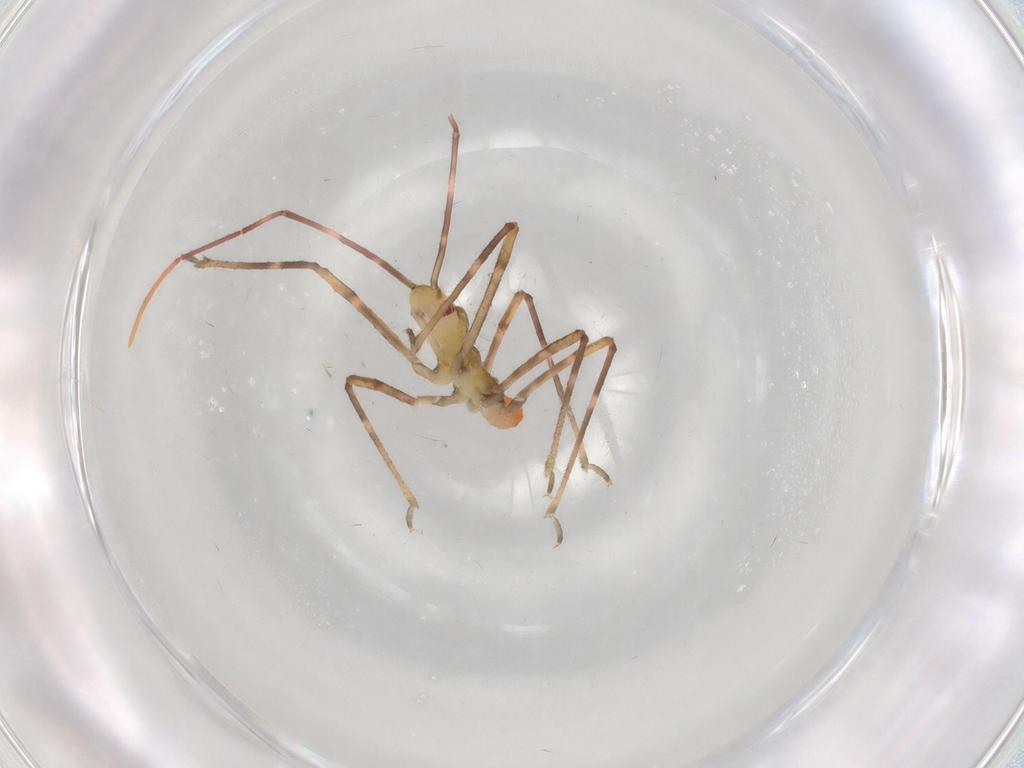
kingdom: Animalia
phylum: Arthropoda
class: Insecta
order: Hemiptera
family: Reduviidae
